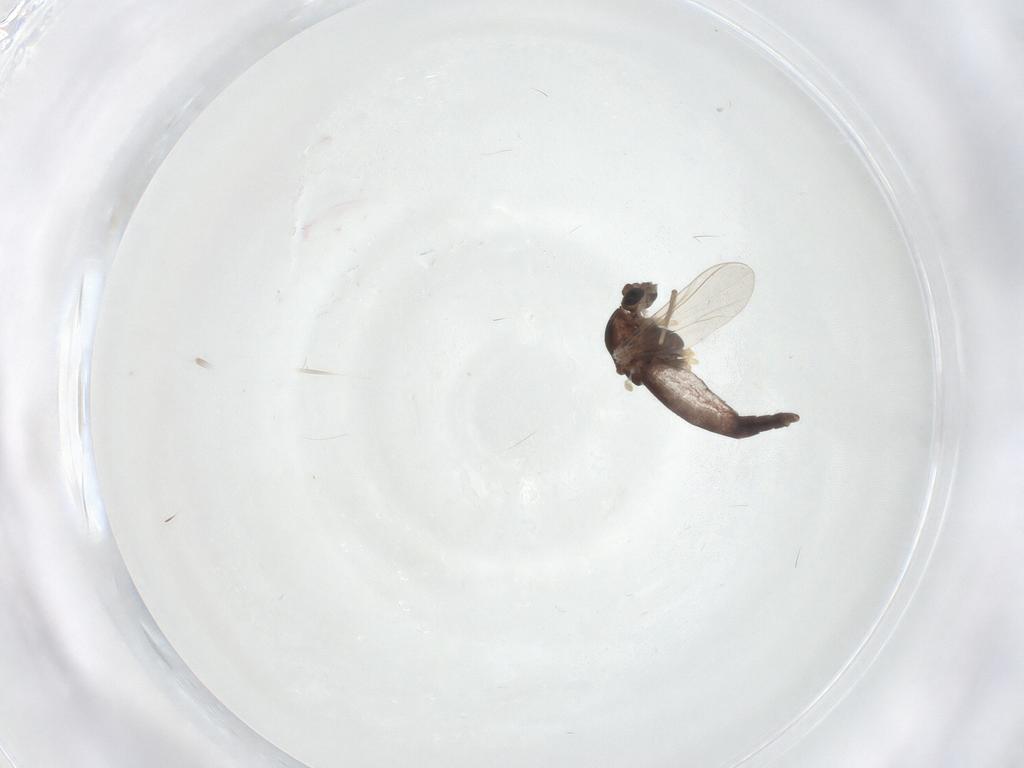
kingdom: Animalia
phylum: Arthropoda
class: Insecta
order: Diptera
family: Chironomidae
